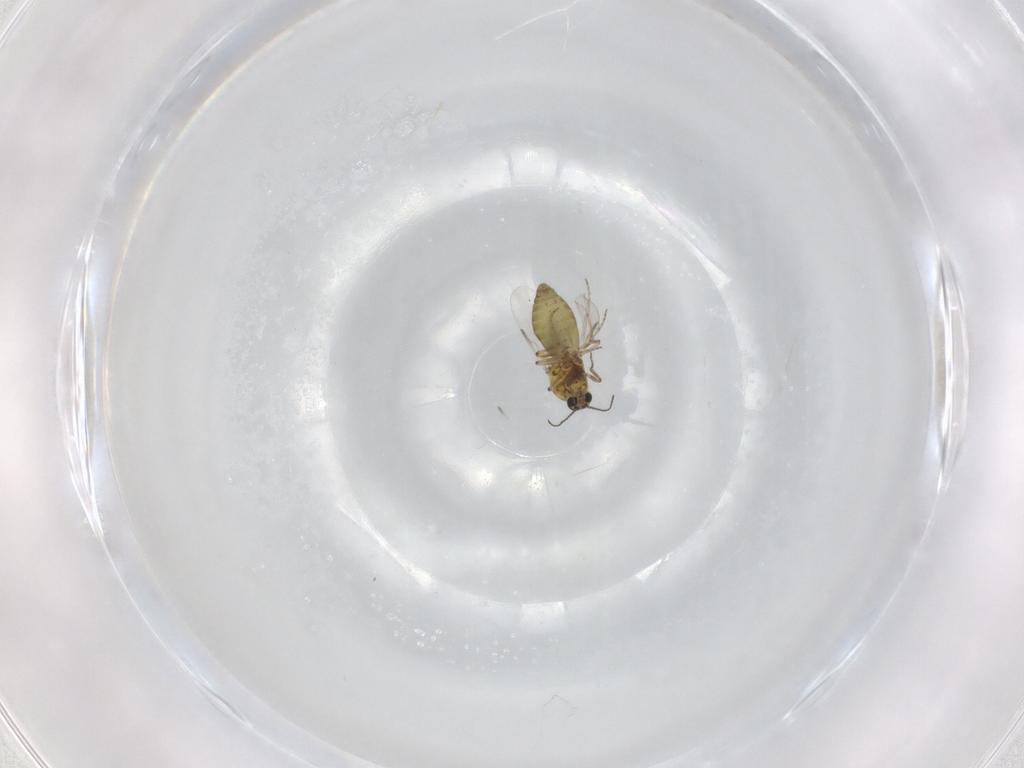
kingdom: Animalia
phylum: Arthropoda
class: Insecta
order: Diptera
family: Ceratopogonidae
